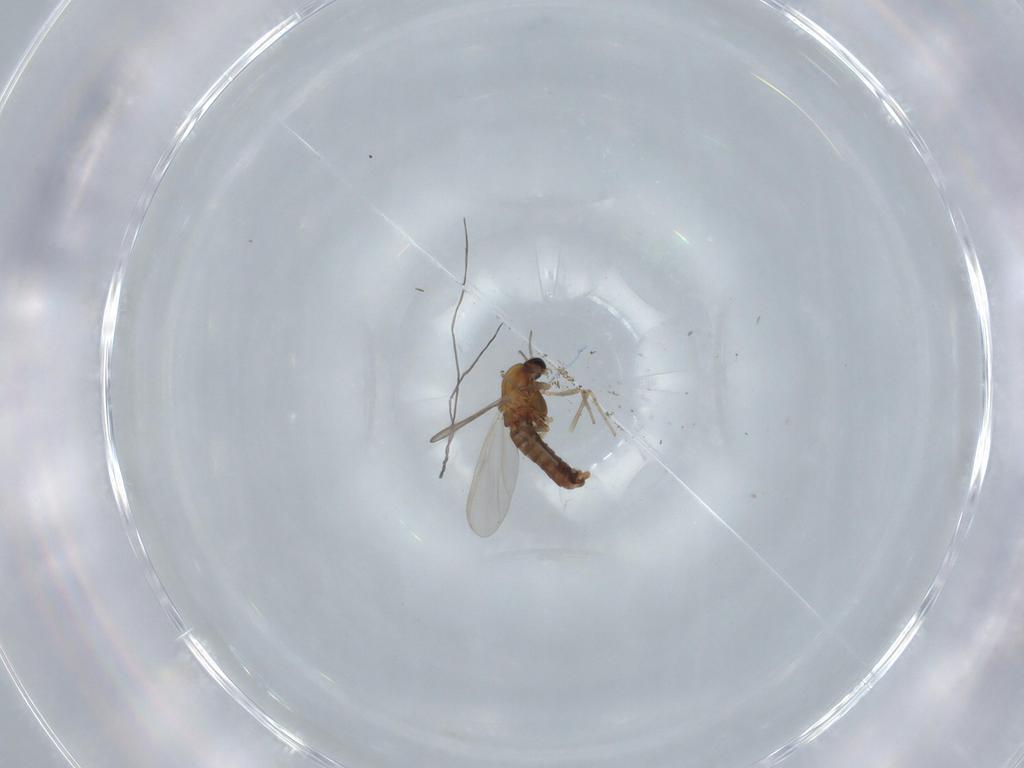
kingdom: Animalia
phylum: Arthropoda
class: Insecta
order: Diptera
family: Chironomidae
